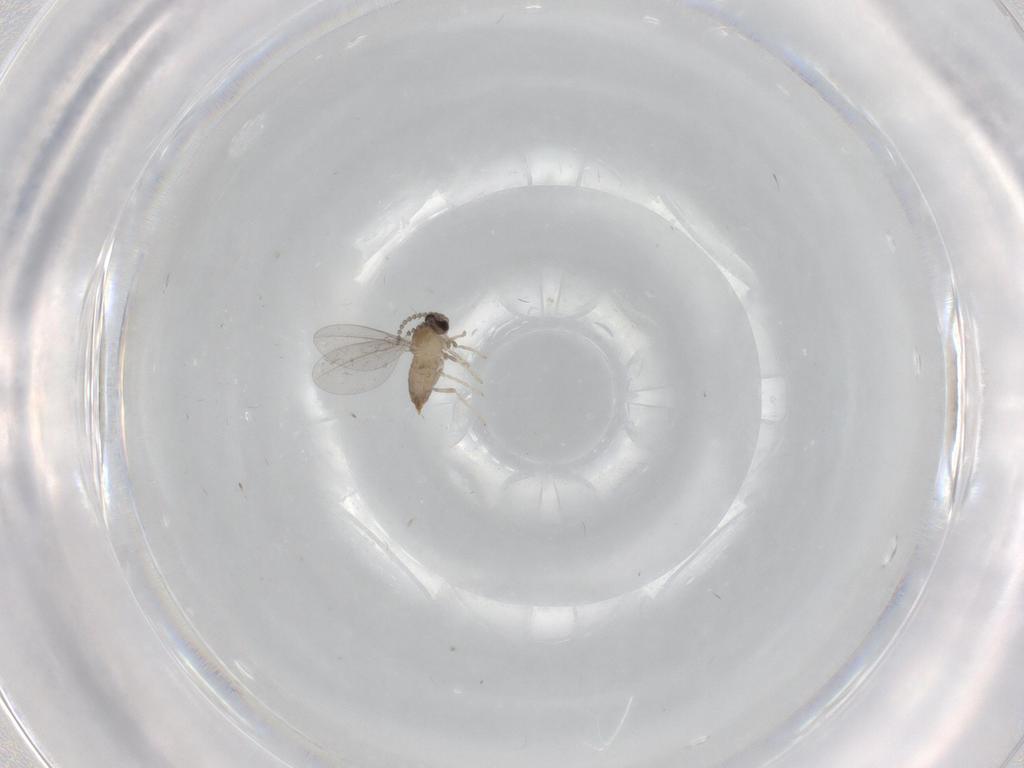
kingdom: Animalia
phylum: Arthropoda
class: Insecta
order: Diptera
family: Cecidomyiidae
